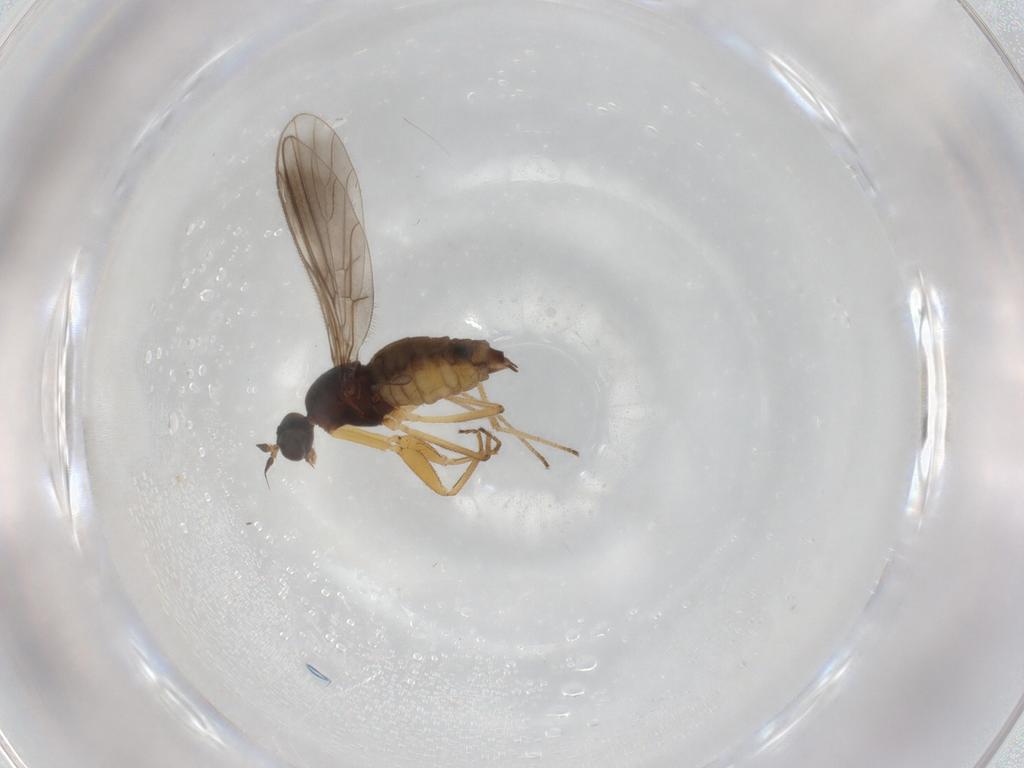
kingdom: Animalia
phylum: Arthropoda
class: Insecta
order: Diptera
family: Empididae
